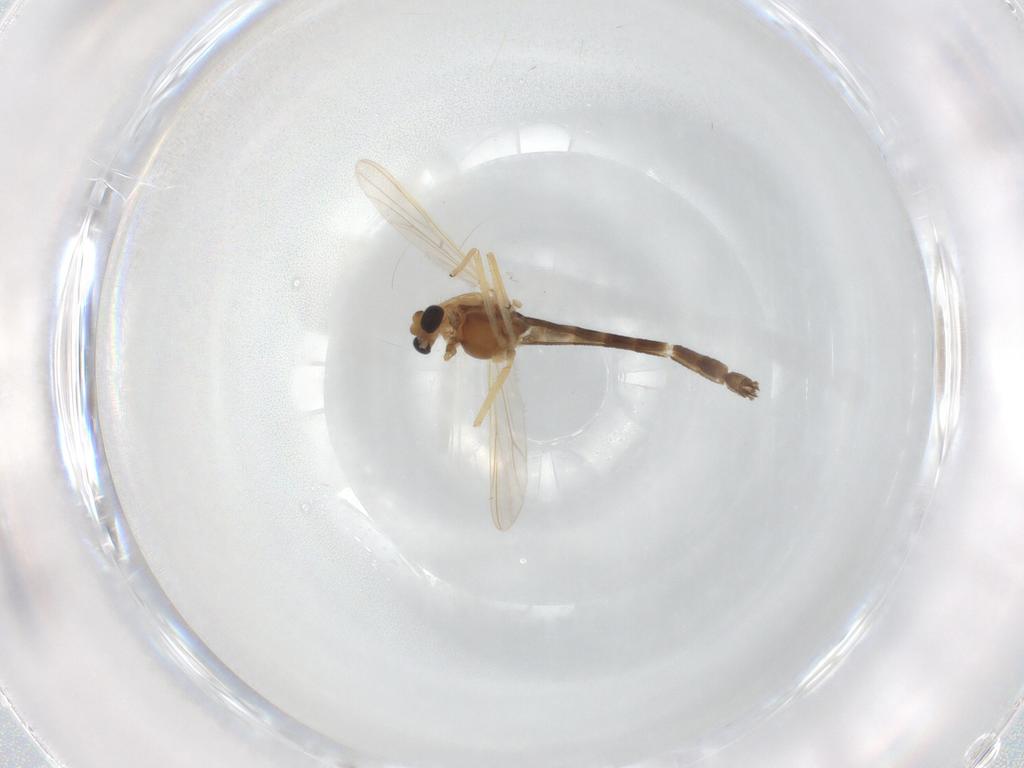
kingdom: Animalia
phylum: Arthropoda
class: Insecta
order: Diptera
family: Chironomidae
